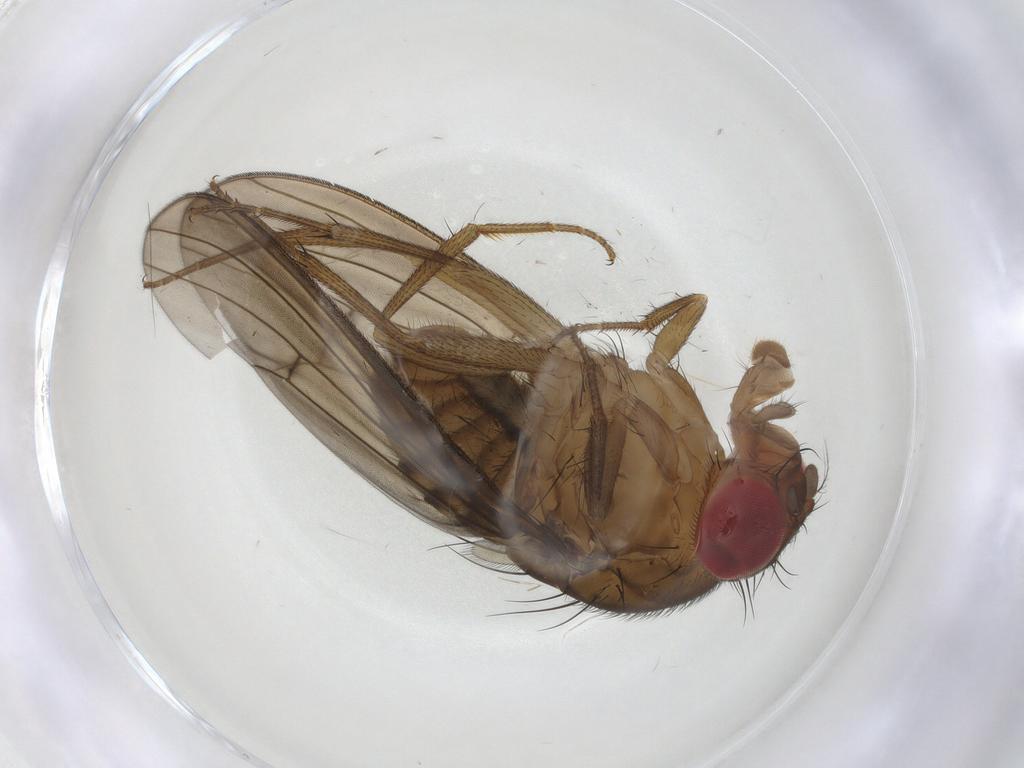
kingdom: Animalia
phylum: Arthropoda
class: Insecta
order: Diptera
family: Drosophilidae
